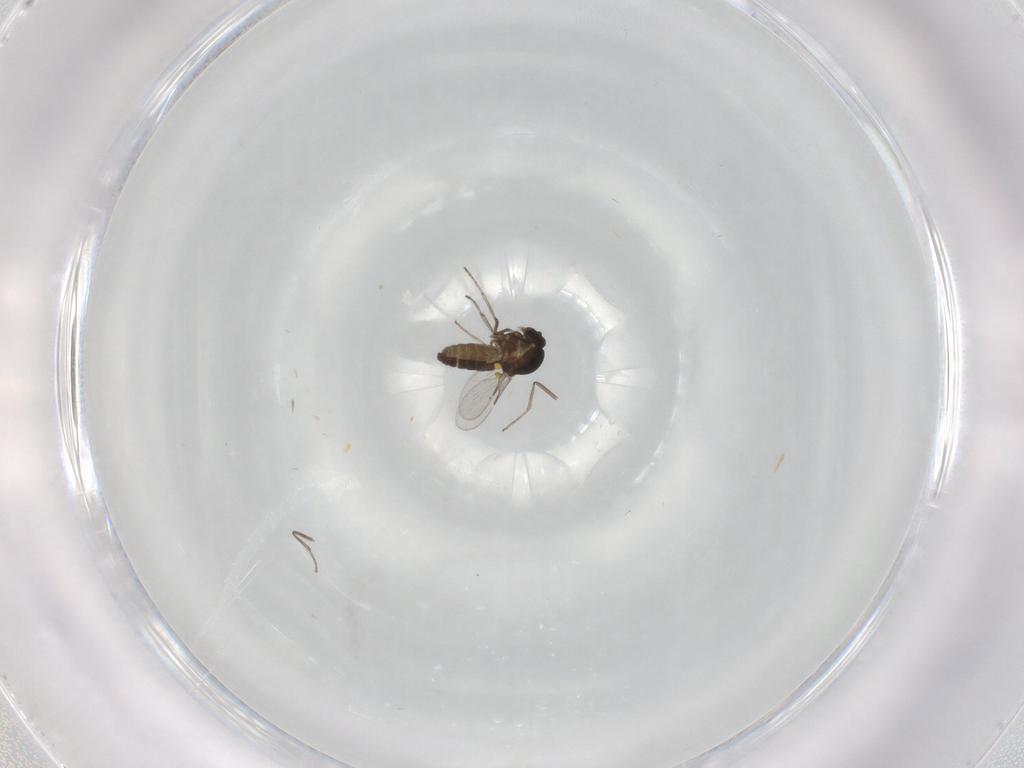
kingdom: Animalia
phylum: Arthropoda
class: Insecta
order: Diptera
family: Ceratopogonidae
